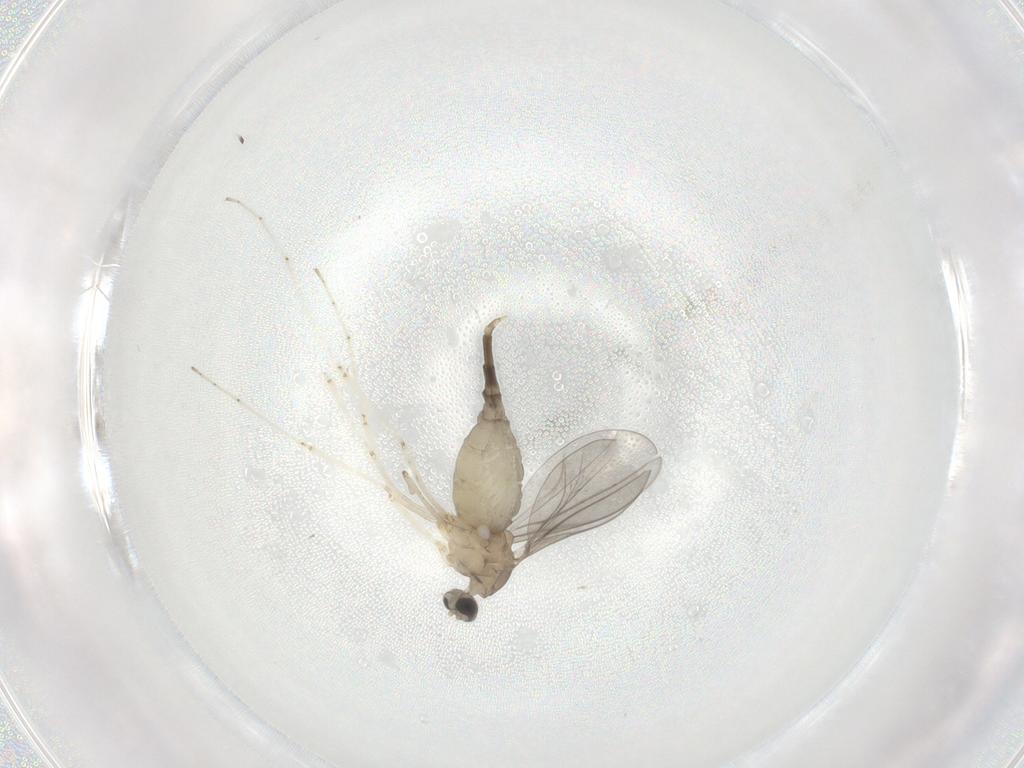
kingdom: Animalia
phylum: Arthropoda
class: Insecta
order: Diptera
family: Cecidomyiidae
